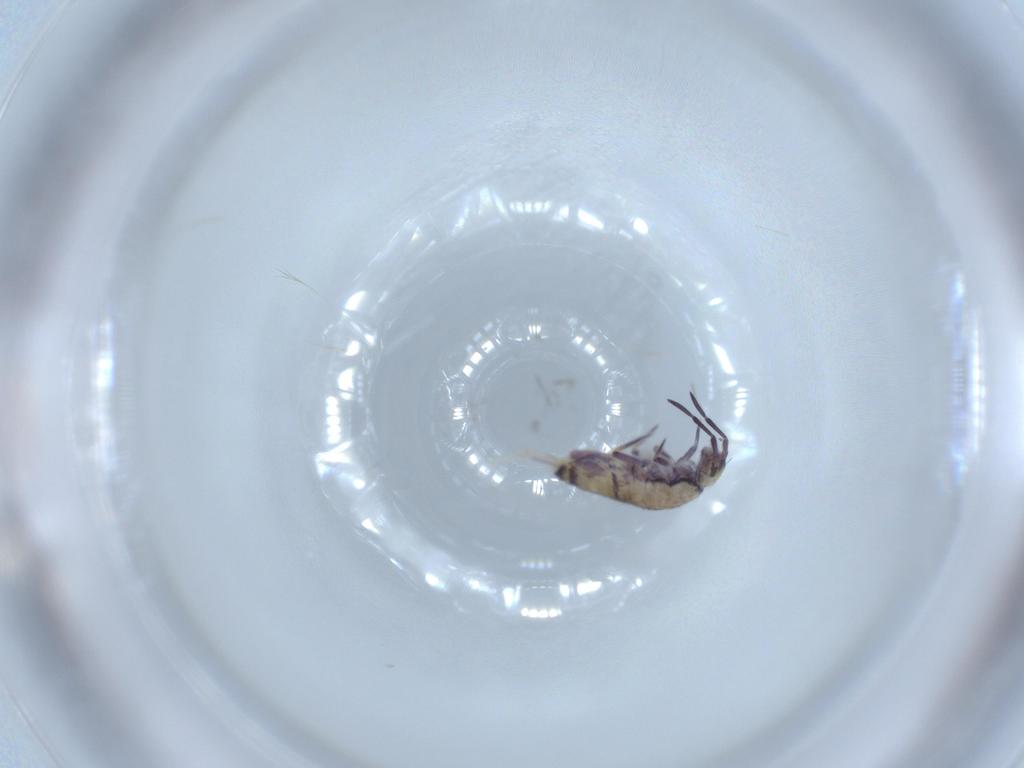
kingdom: Animalia
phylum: Arthropoda
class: Collembola
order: Entomobryomorpha
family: Entomobryidae
